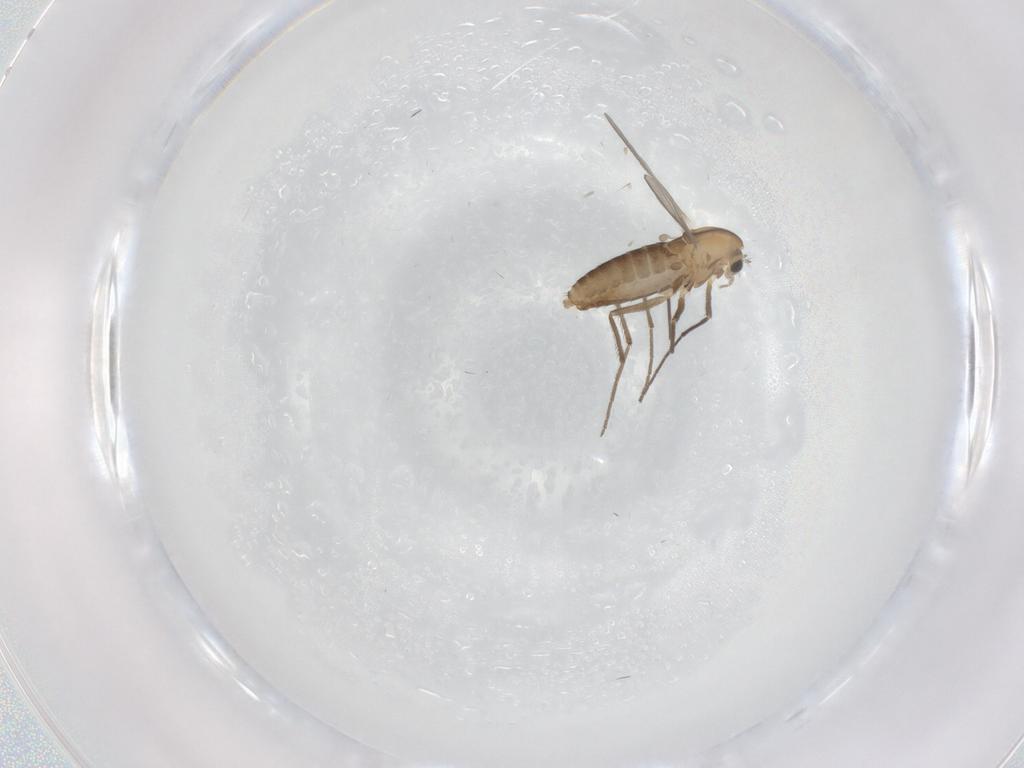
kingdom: Animalia
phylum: Arthropoda
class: Insecta
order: Diptera
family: Chironomidae
